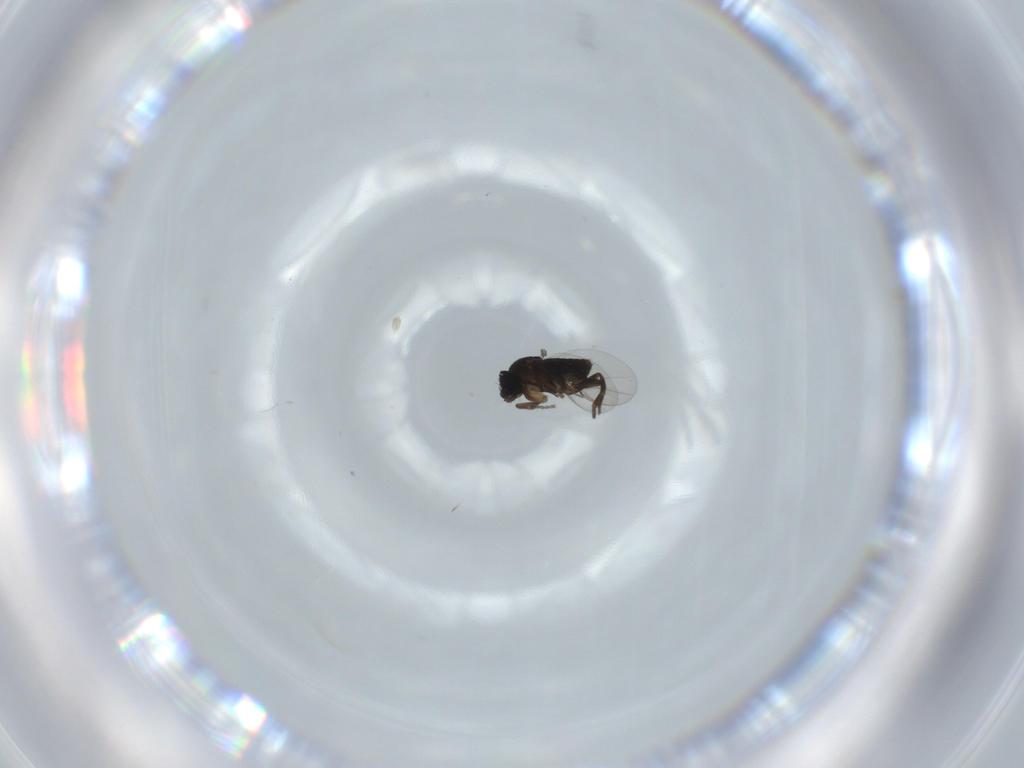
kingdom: Animalia
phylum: Arthropoda
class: Insecta
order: Diptera
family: Phoridae
